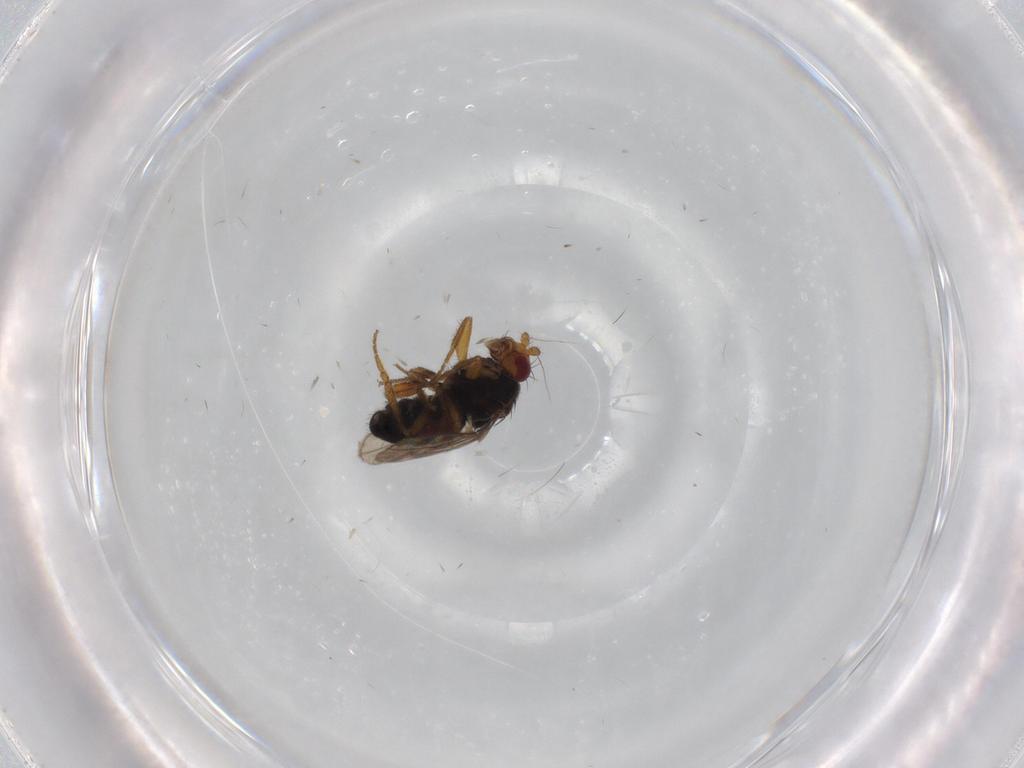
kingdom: Animalia
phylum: Arthropoda
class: Insecta
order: Diptera
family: Sphaeroceridae
